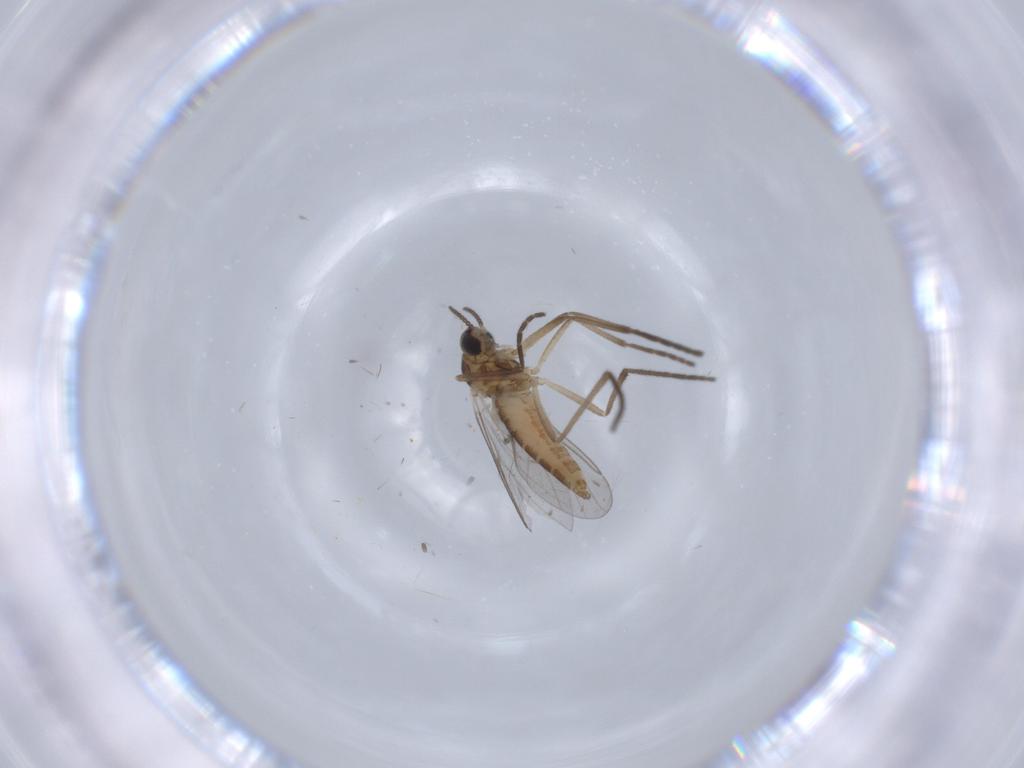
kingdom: Animalia
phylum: Arthropoda
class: Insecta
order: Diptera
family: Cecidomyiidae
